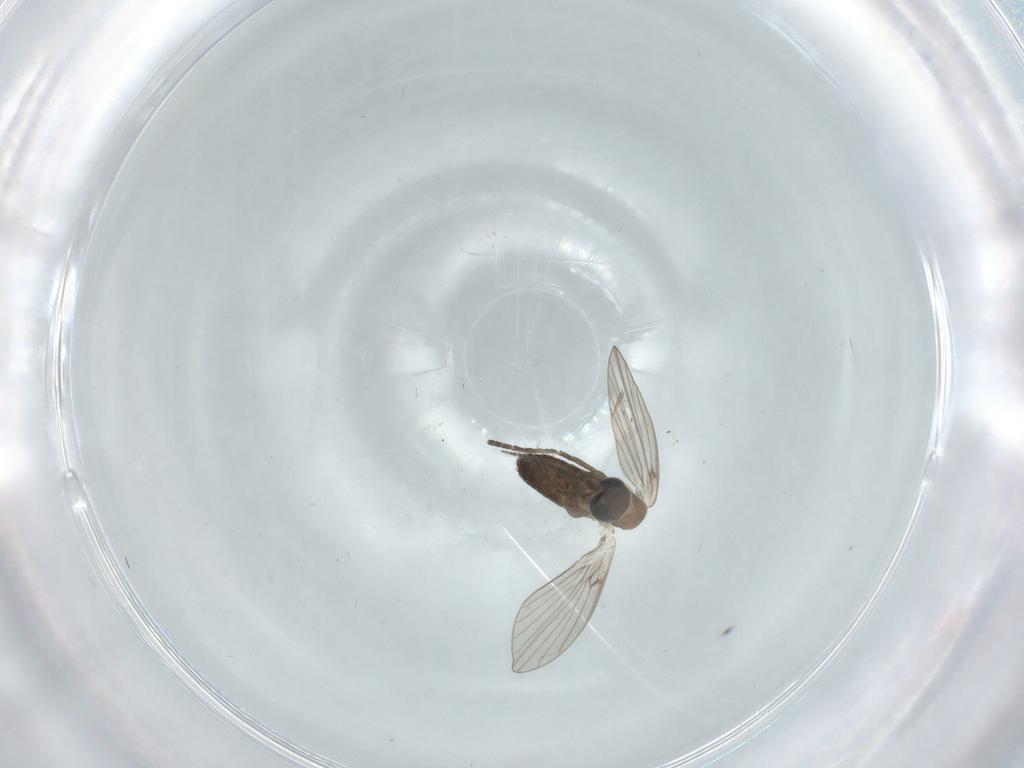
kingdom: Animalia
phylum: Arthropoda
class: Insecta
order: Diptera
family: Psychodidae
